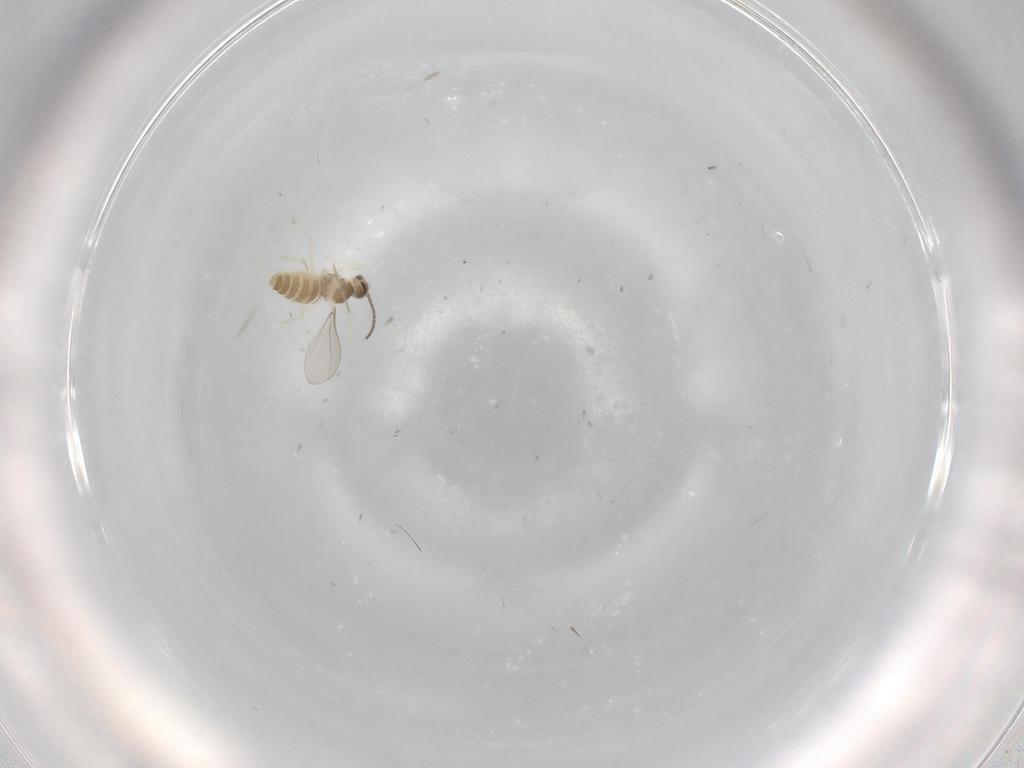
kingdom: Animalia
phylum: Arthropoda
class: Insecta
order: Diptera
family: Cecidomyiidae
